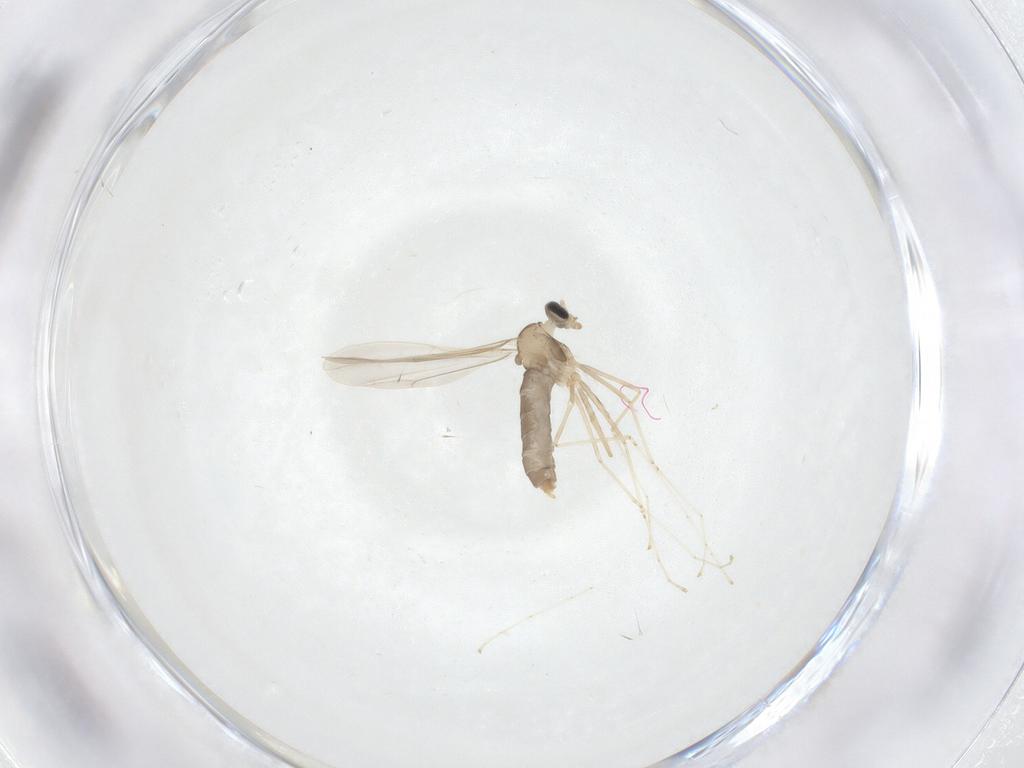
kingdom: Animalia
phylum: Arthropoda
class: Insecta
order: Diptera
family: Cecidomyiidae
